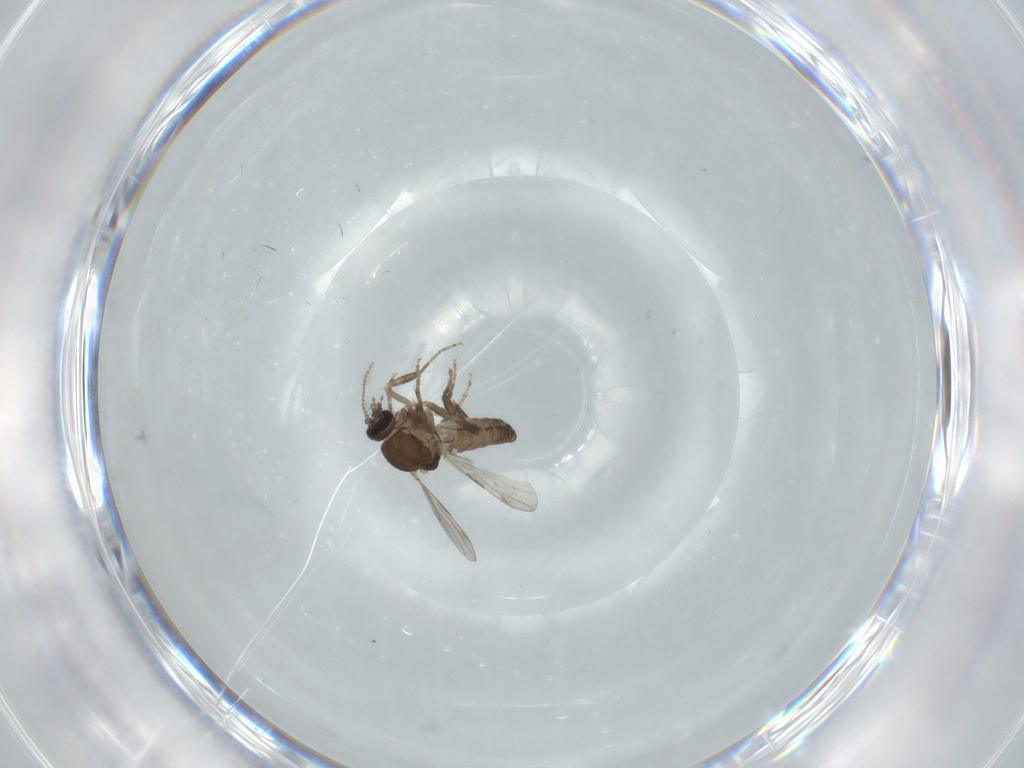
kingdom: Animalia
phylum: Arthropoda
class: Insecta
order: Diptera
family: Ceratopogonidae
